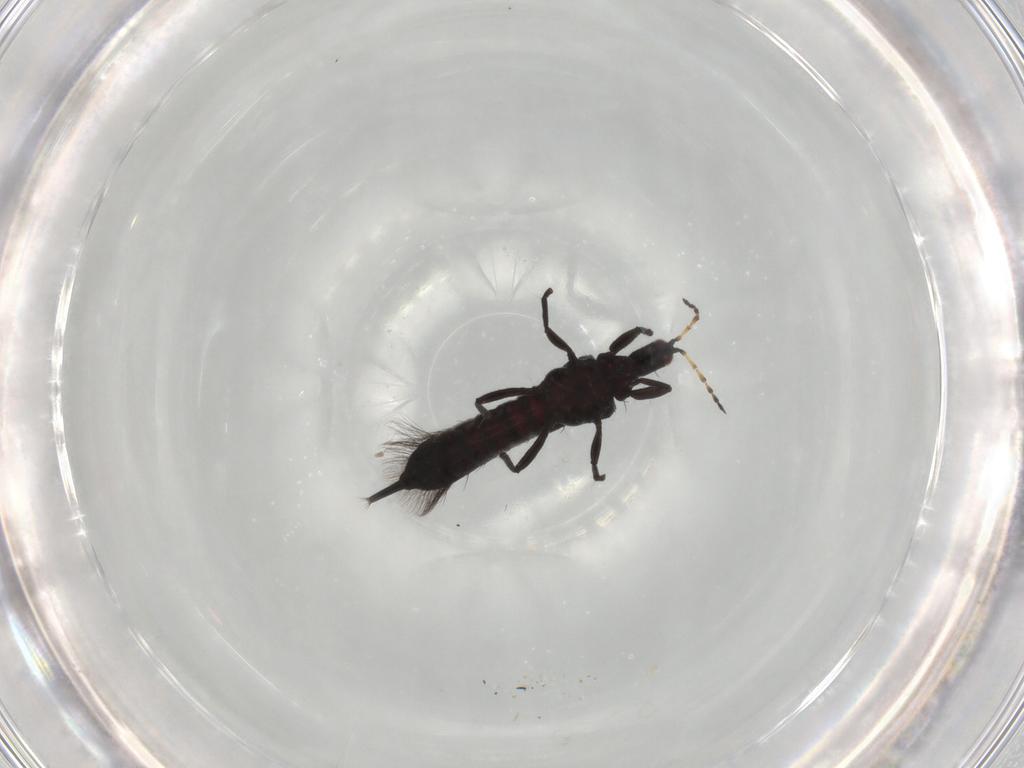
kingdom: Animalia
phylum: Arthropoda
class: Insecta
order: Thysanoptera
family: Phlaeothripidae
